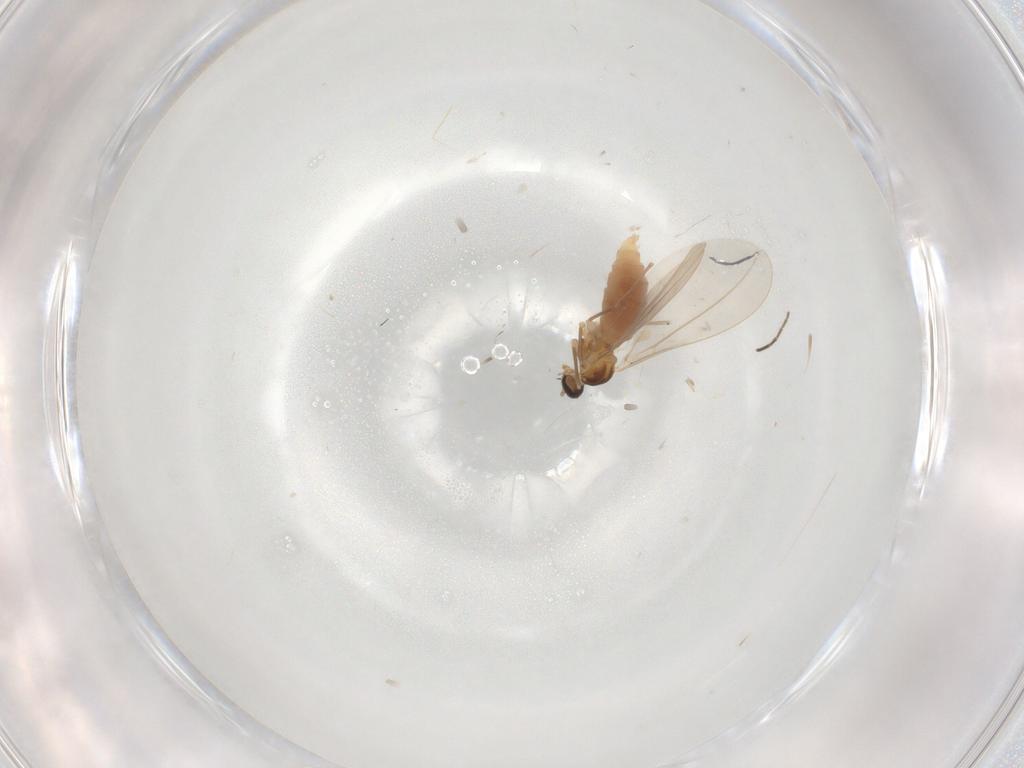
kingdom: Animalia
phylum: Arthropoda
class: Insecta
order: Diptera
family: Cecidomyiidae
